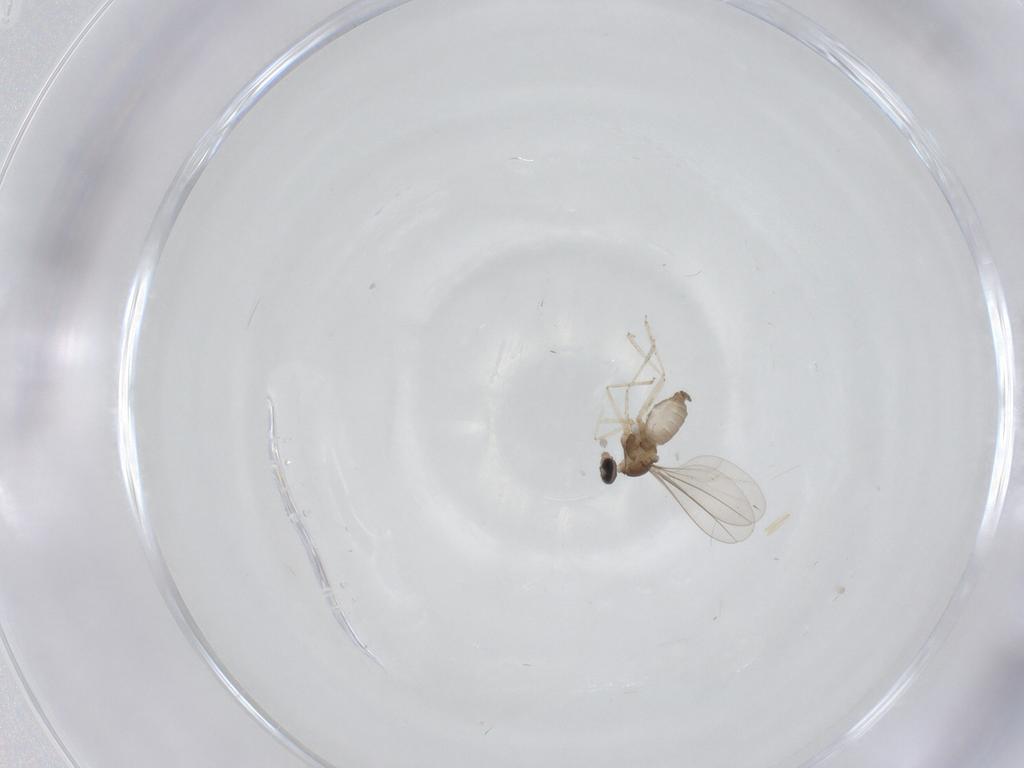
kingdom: Animalia
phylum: Arthropoda
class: Insecta
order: Diptera
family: Cecidomyiidae
